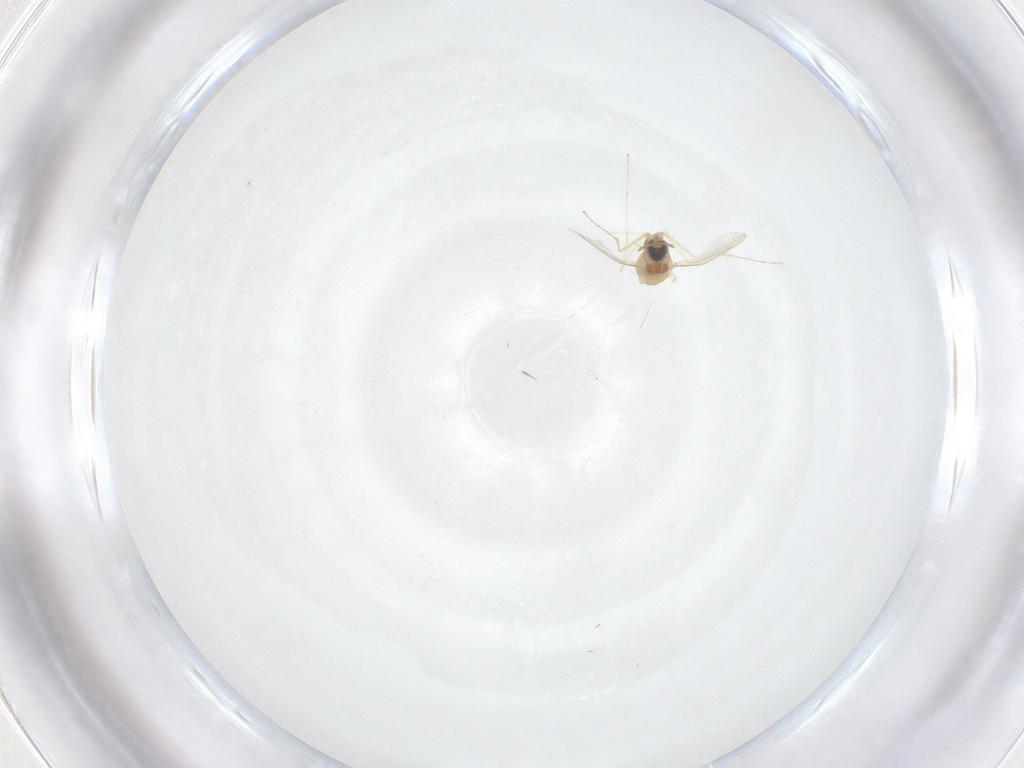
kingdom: Animalia
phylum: Arthropoda
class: Insecta
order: Diptera
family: Cecidomyiidae
